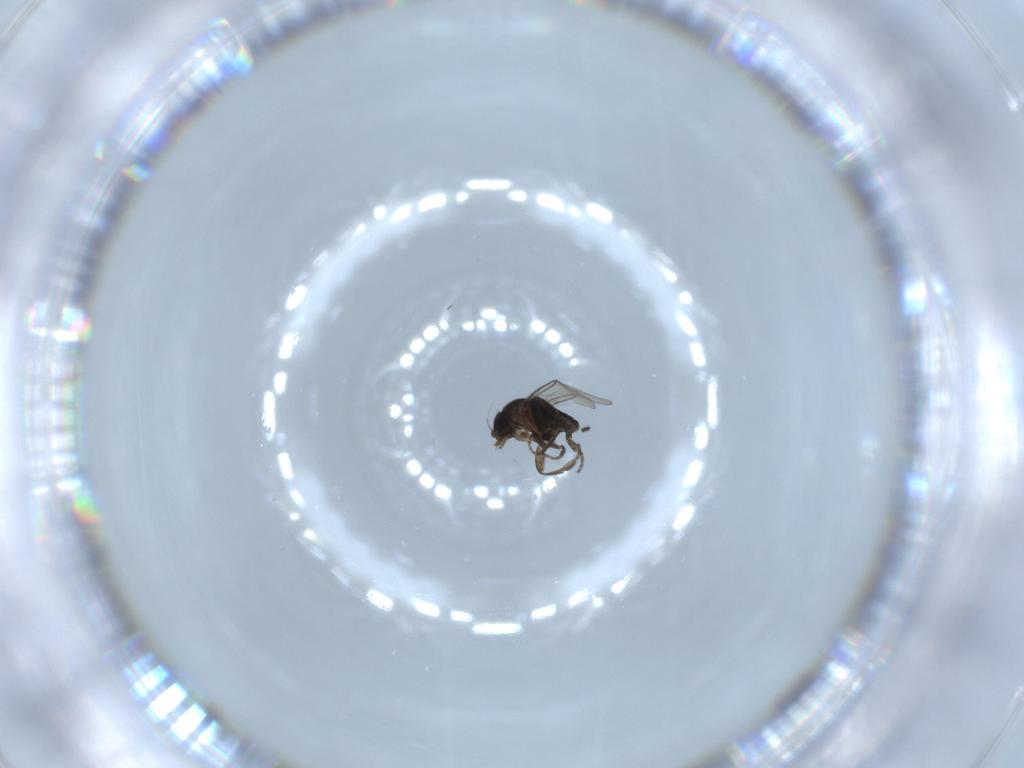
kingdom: Animalia
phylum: Arthropoda
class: Insecta
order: Diptera
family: Phoridae
